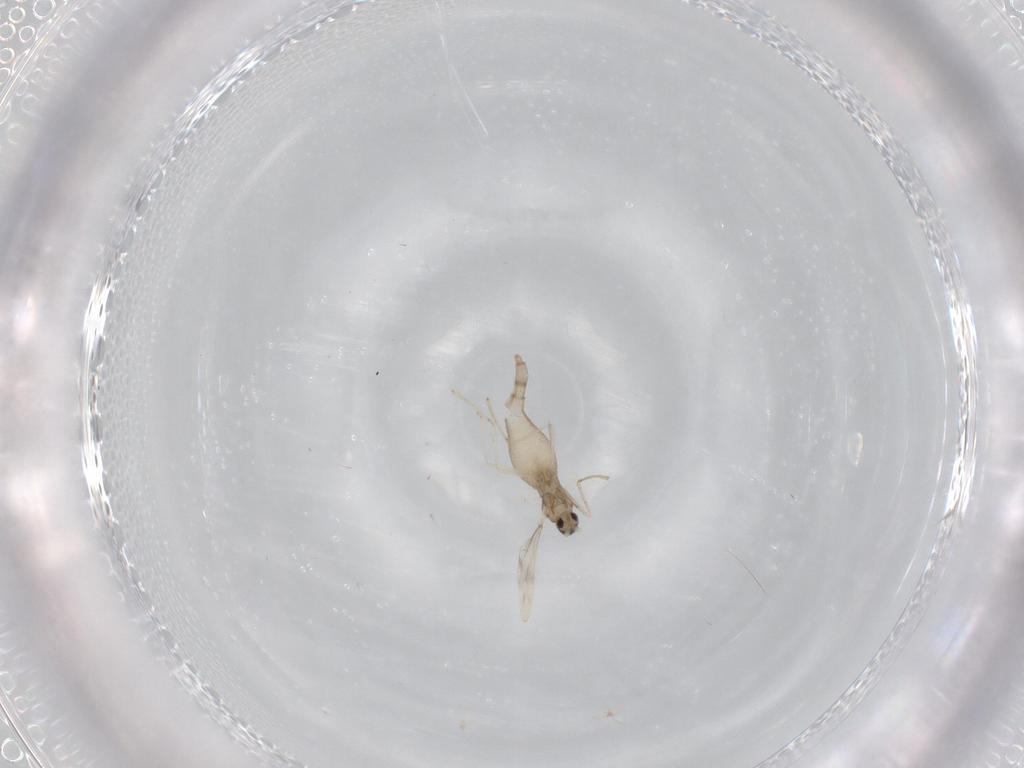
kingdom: Animalia
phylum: Arthropoda
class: Insecta
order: Diptera
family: Cecidomyiidae
